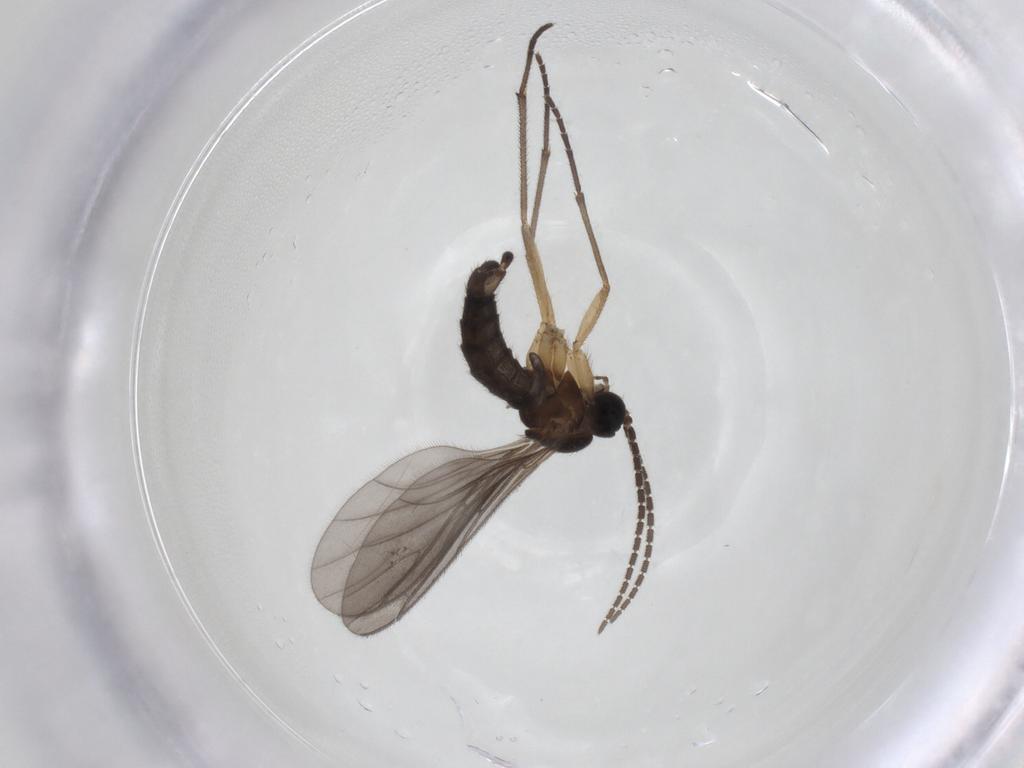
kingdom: Animalia
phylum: Arthropoda
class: Insecta
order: Diptera
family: Sciaridae
